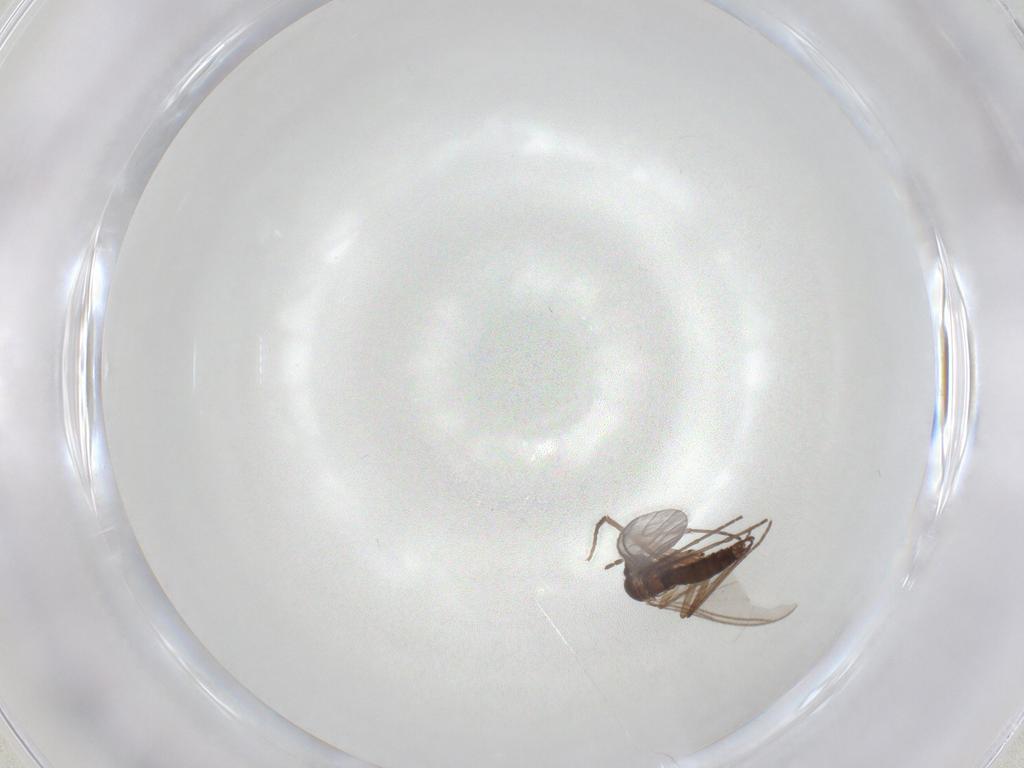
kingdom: Animalia
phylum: Arthropoda
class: Insecta
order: Diptera
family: Sciaridae
